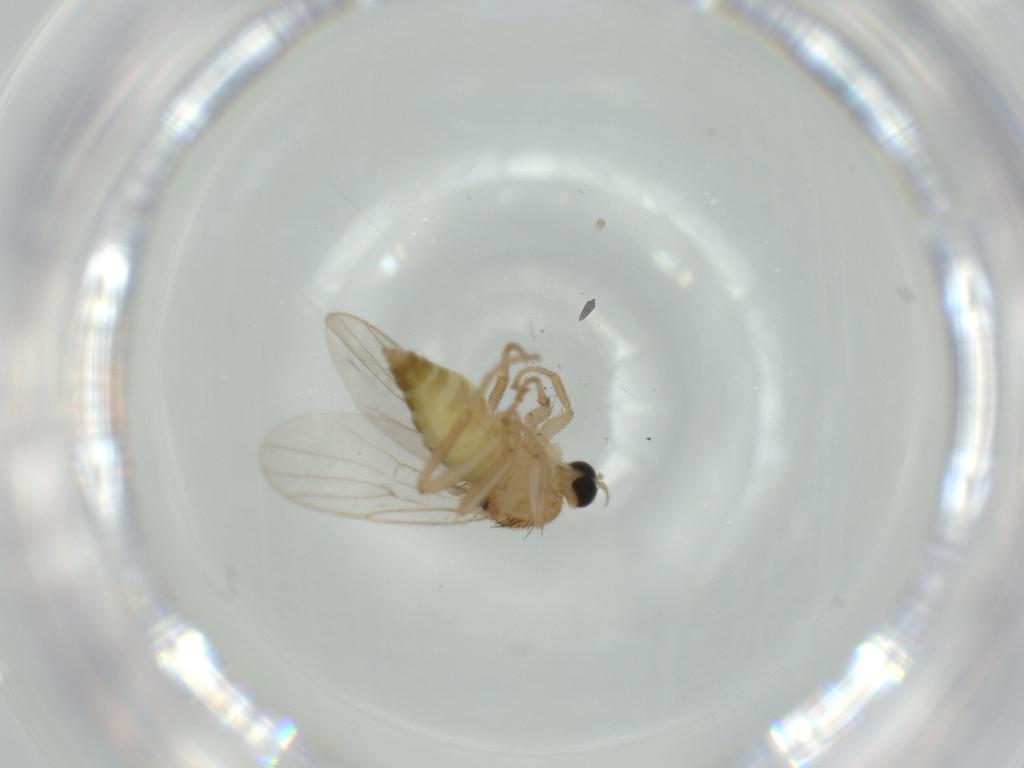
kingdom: Animalia
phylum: Arthropoda
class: Insecta
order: Diptera
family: Hybotidae
